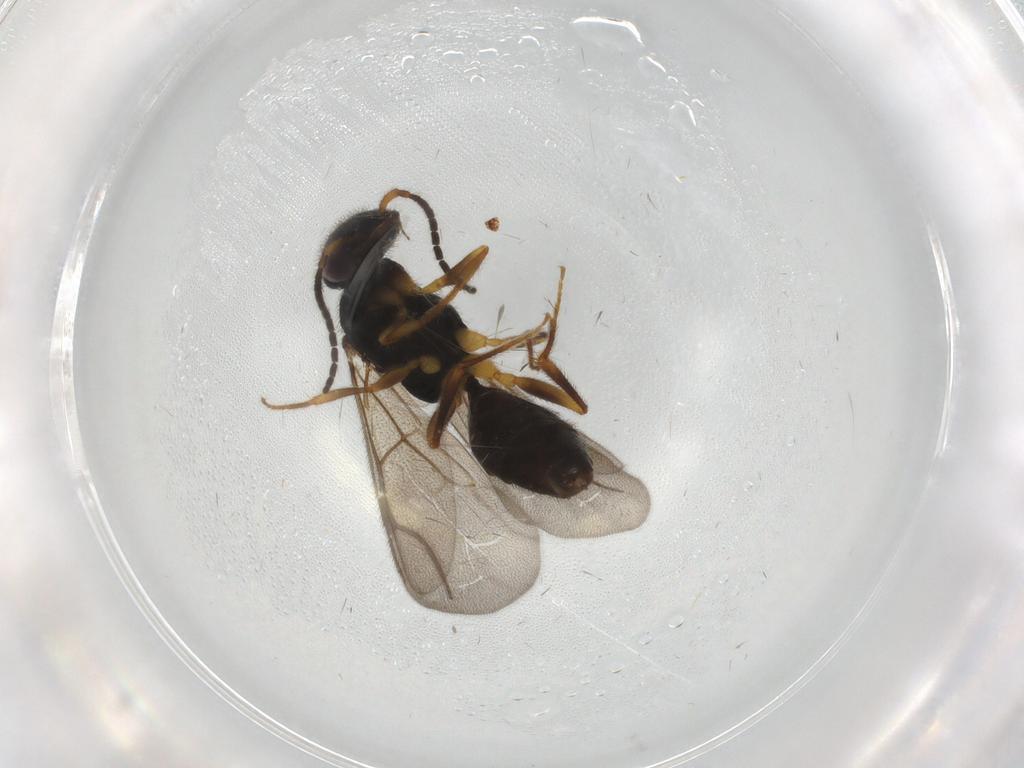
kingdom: Animalia
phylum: Arthropoda
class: Insecta
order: Hymenoptera
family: Bethylidae
